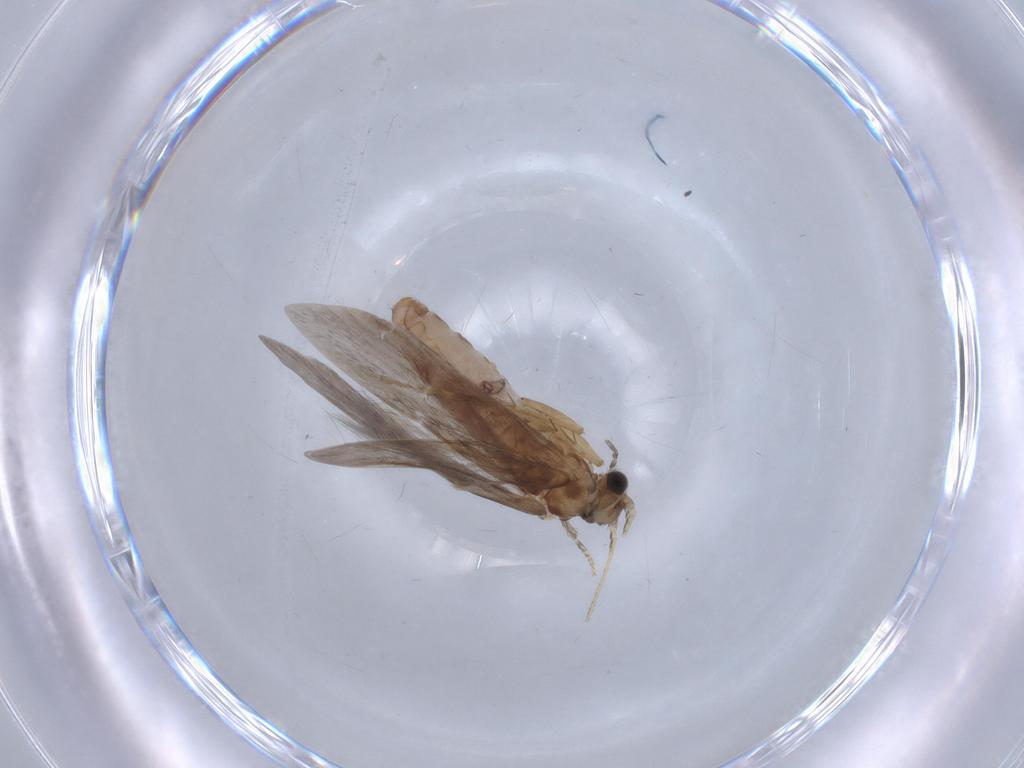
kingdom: Animalia
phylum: Arthropoda
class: Insecta
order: Trichoptera
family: Glossosomatidae
